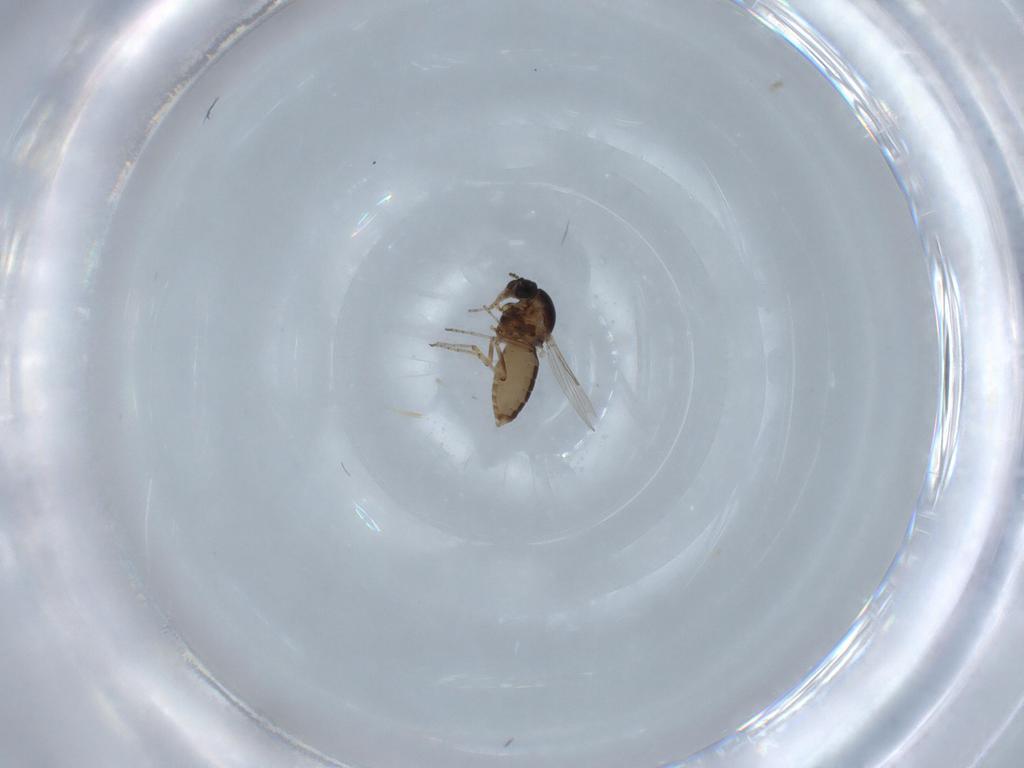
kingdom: Animalia
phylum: Arthropoda
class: Insecta
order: Diptera
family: Ceratopogonidae
